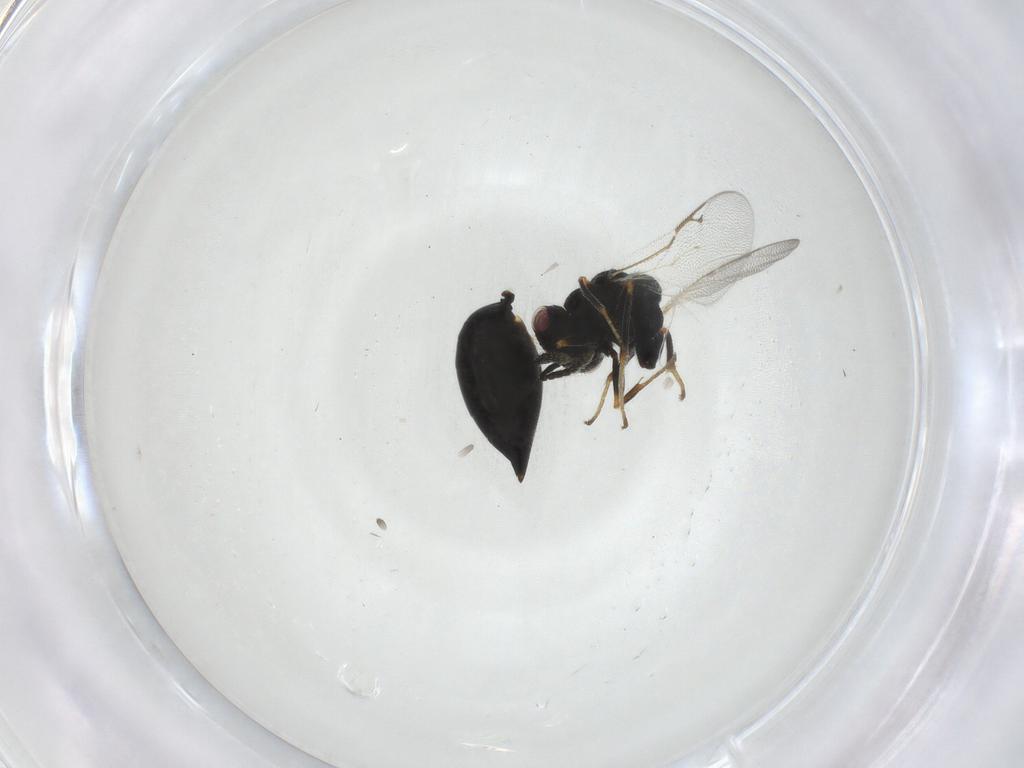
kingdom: Animalia
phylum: Arthropoda
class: Insecta
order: Hymenoptera
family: Eurytomidae
